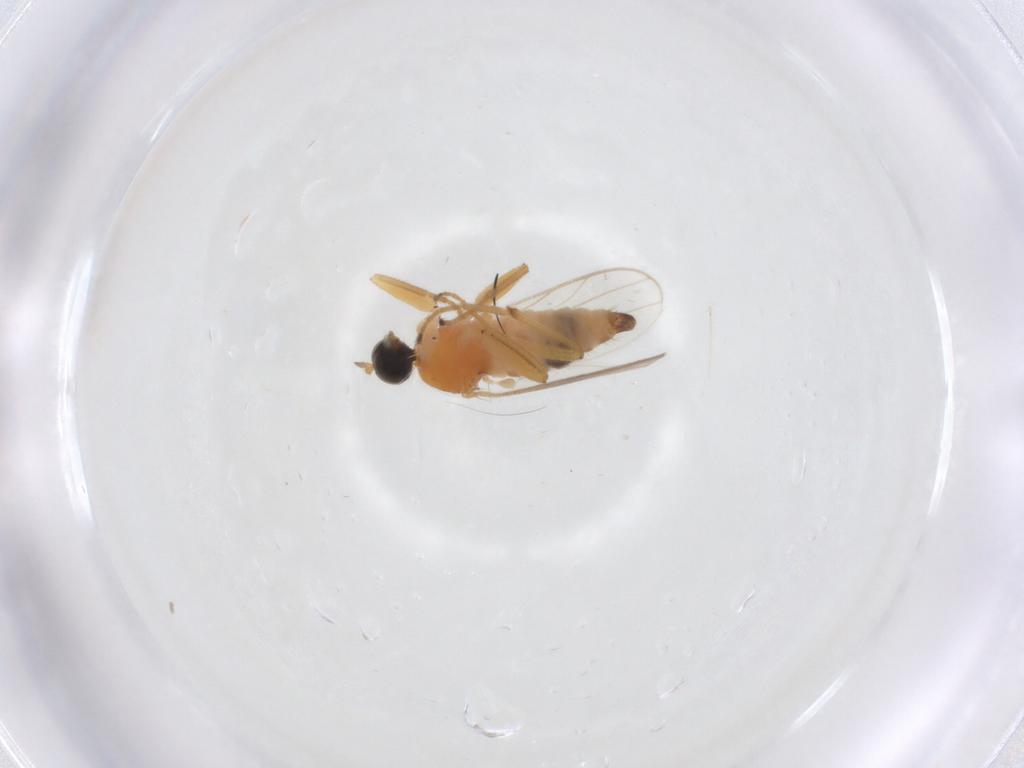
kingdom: Animalia
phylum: Arthropoda
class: Insecta
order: Diptera
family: Hybotidae
